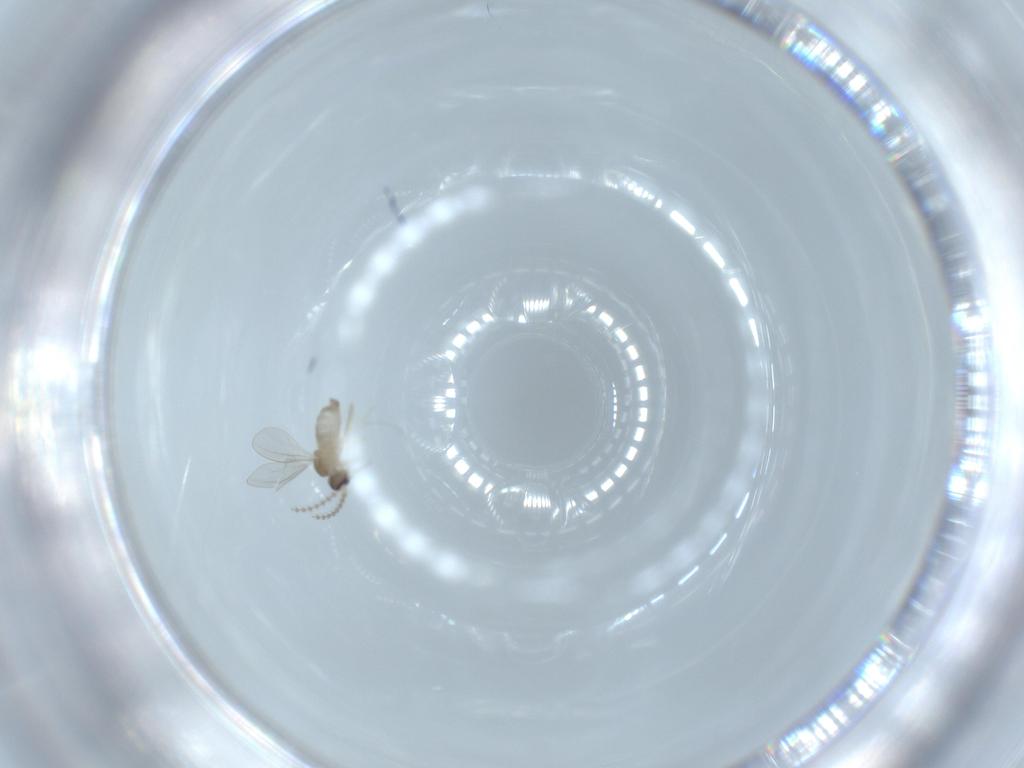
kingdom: Animalia
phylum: Arthropoda
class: Insecta
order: Diptera
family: Cecidomyiidae
